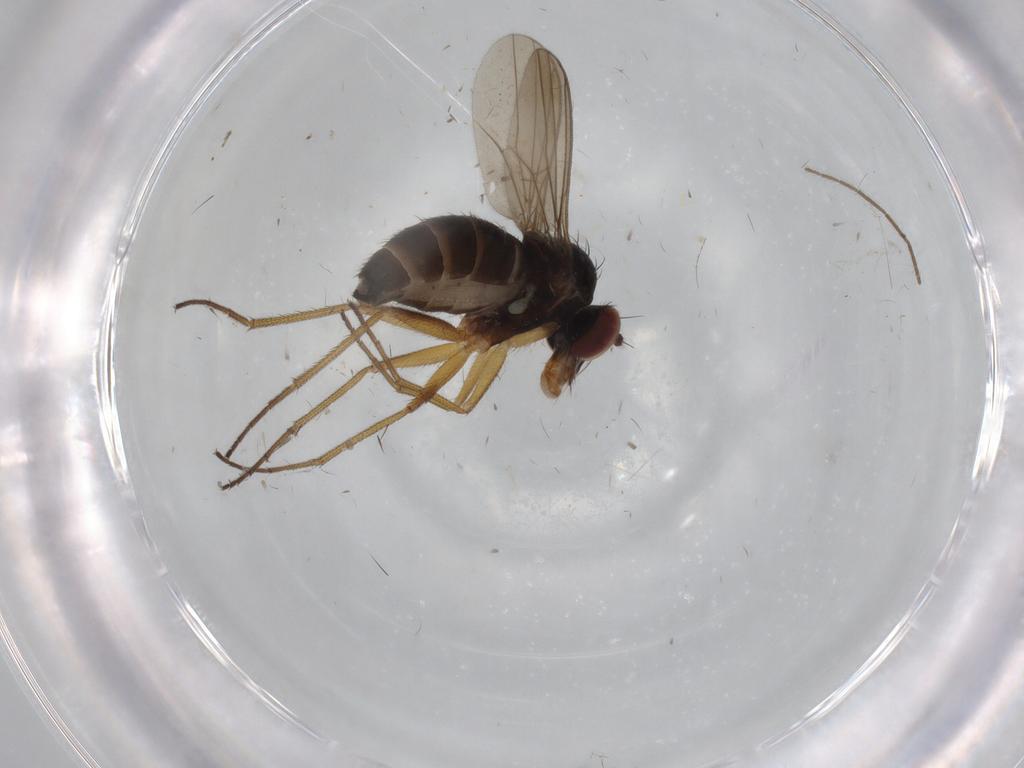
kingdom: Animalia
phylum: Arthropoda
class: Insecta
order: Diptera
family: Dolichopodidae
